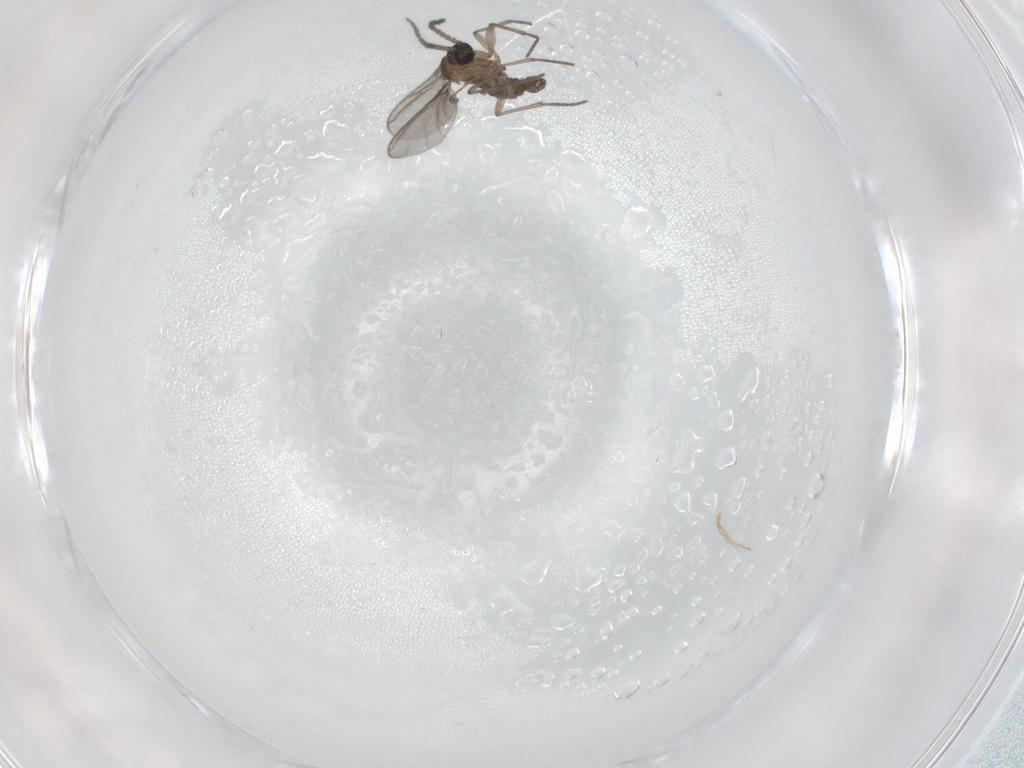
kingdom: Animalia
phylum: Arthropoda
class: Insecta
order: Diptera
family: Sciaridae
